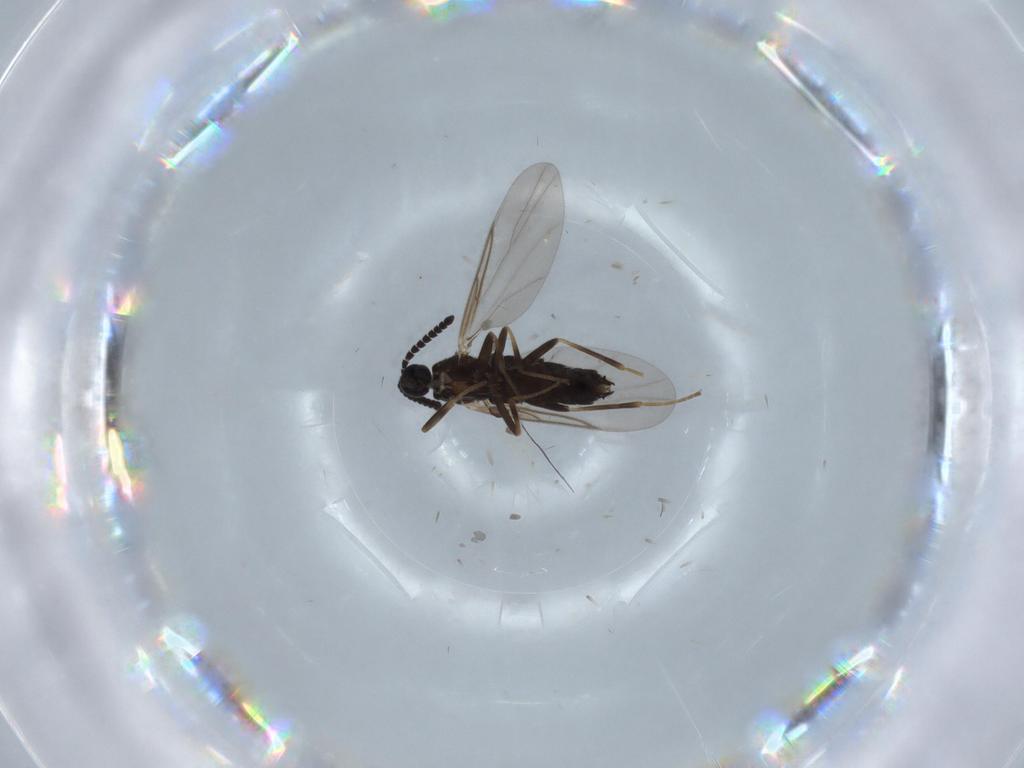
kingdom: Animalia
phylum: Arthropoda
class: Insecta
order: Diptera
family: Scatopsidae
